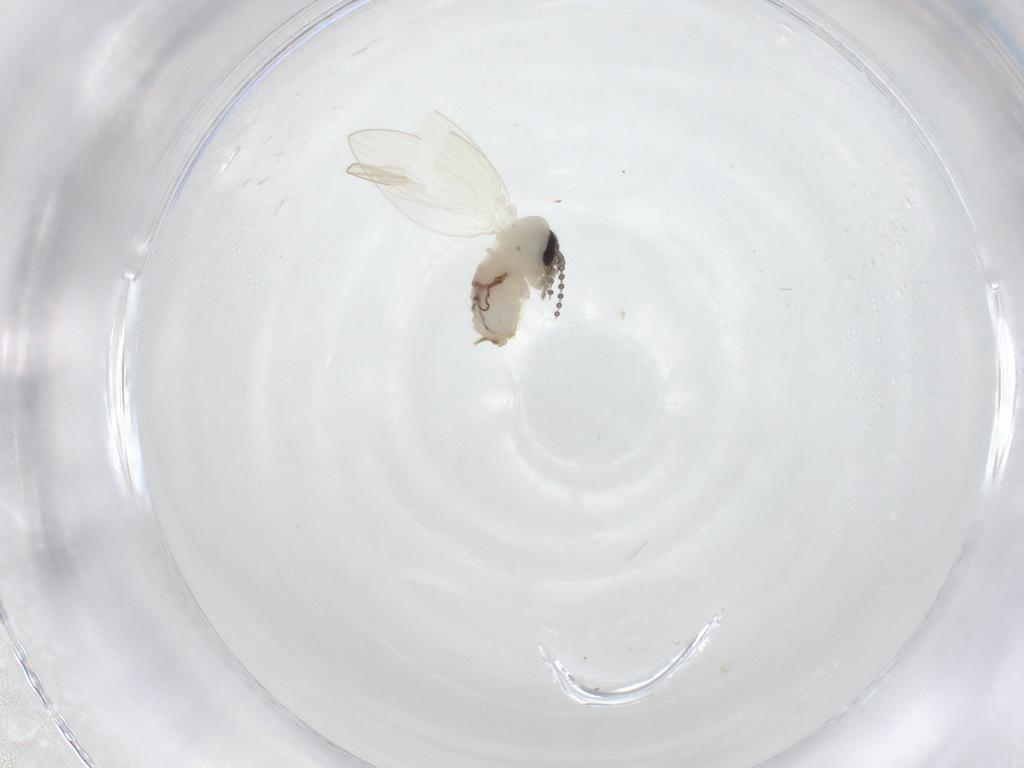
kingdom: Animalia
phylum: Arthropoda
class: Insecta
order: Diptera
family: Psychodidae
